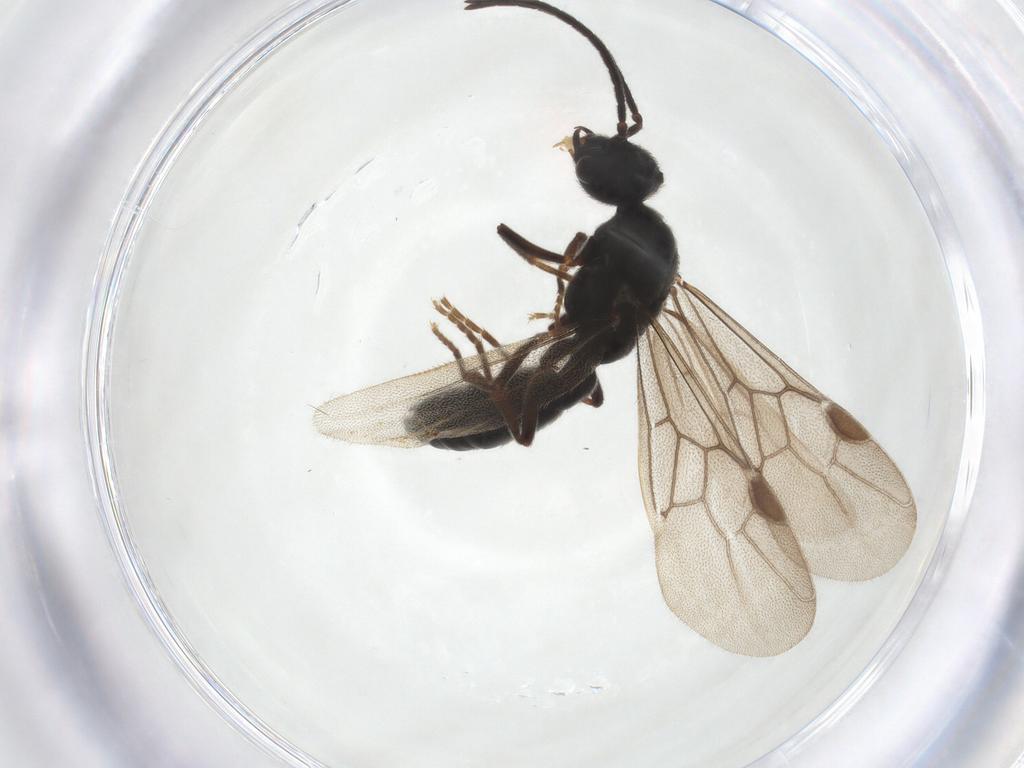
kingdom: Animalia
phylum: Arthropoda
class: Insecta
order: Hymenoptera
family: Formicidae
